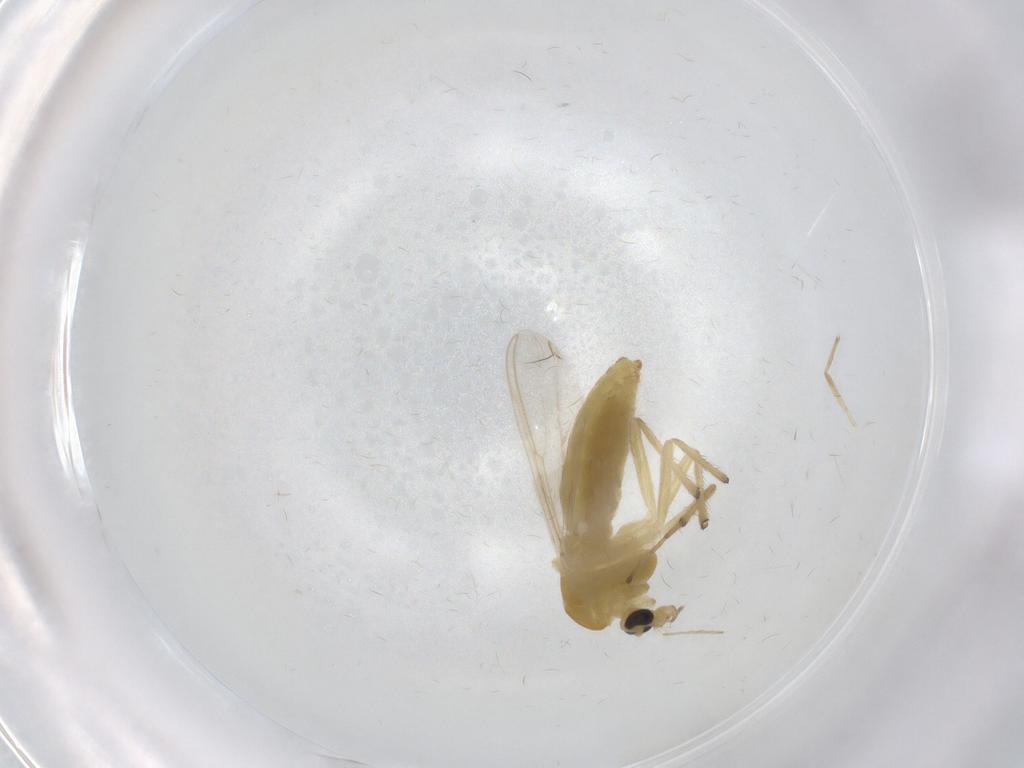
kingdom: Animalia
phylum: Arthropoda
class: Insecta
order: Diptera
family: Chironomidae
